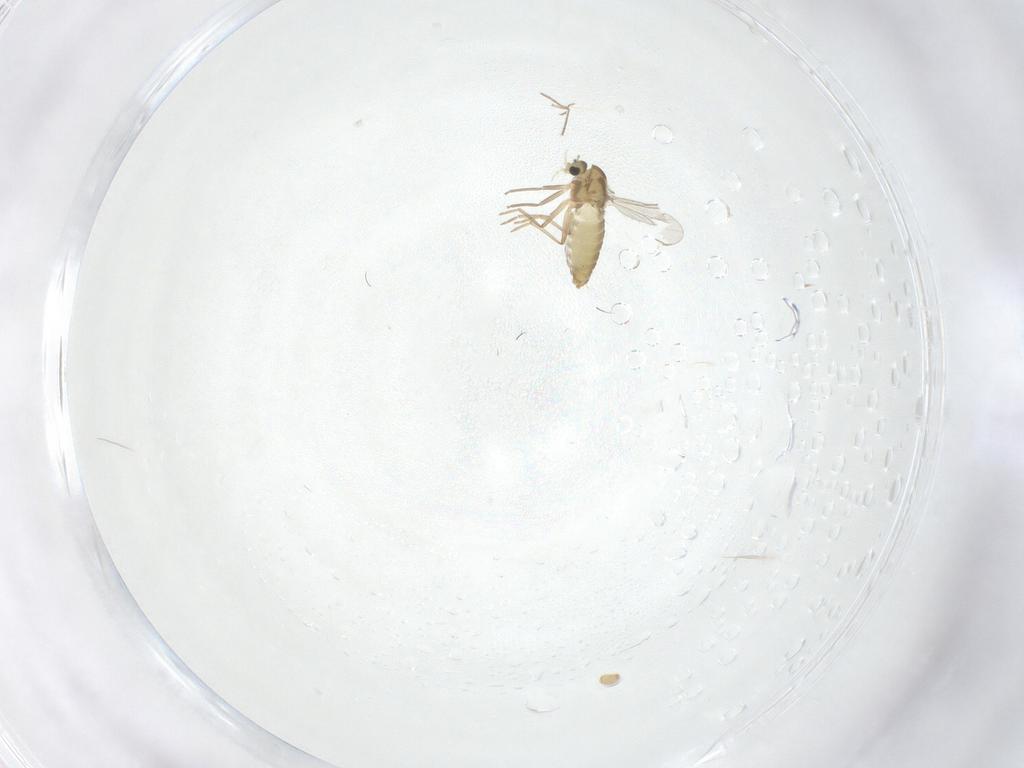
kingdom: Animalia
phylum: Arthropoda
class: Insecta
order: Diptera
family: Chironomidae
